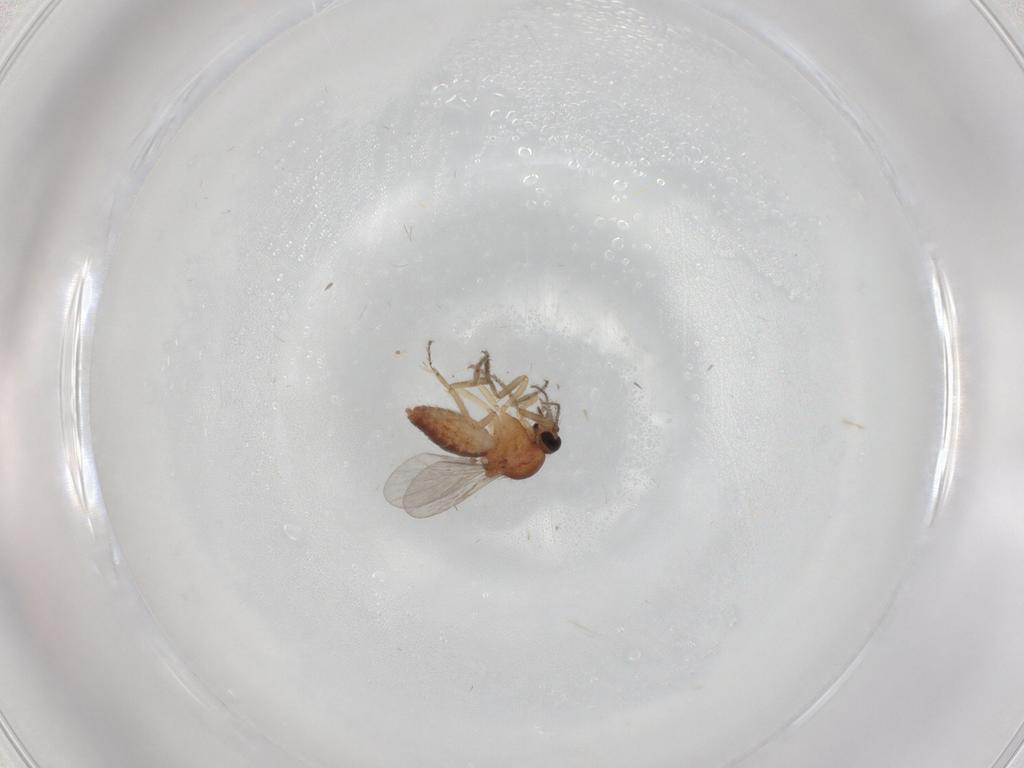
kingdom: Animalia
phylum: Arthropoda
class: Insecta
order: Diptera
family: Ceratopogonidae
